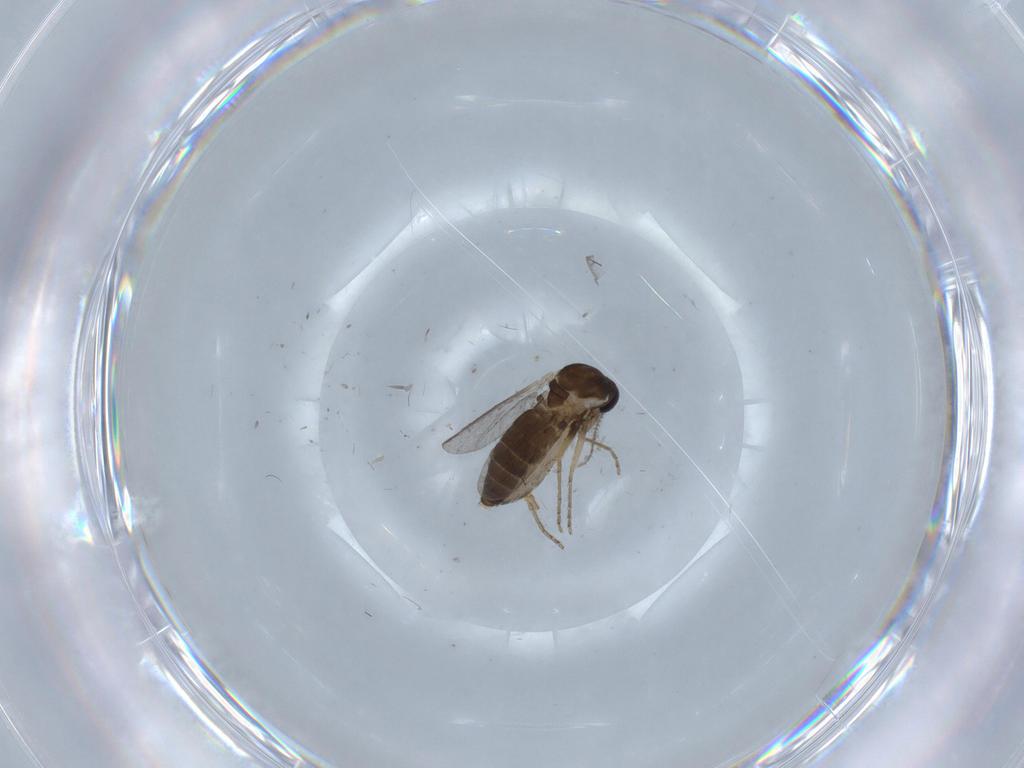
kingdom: Animalia
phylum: Arthropoda
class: Insecta
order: Diptera
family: Ceratopogonidae
